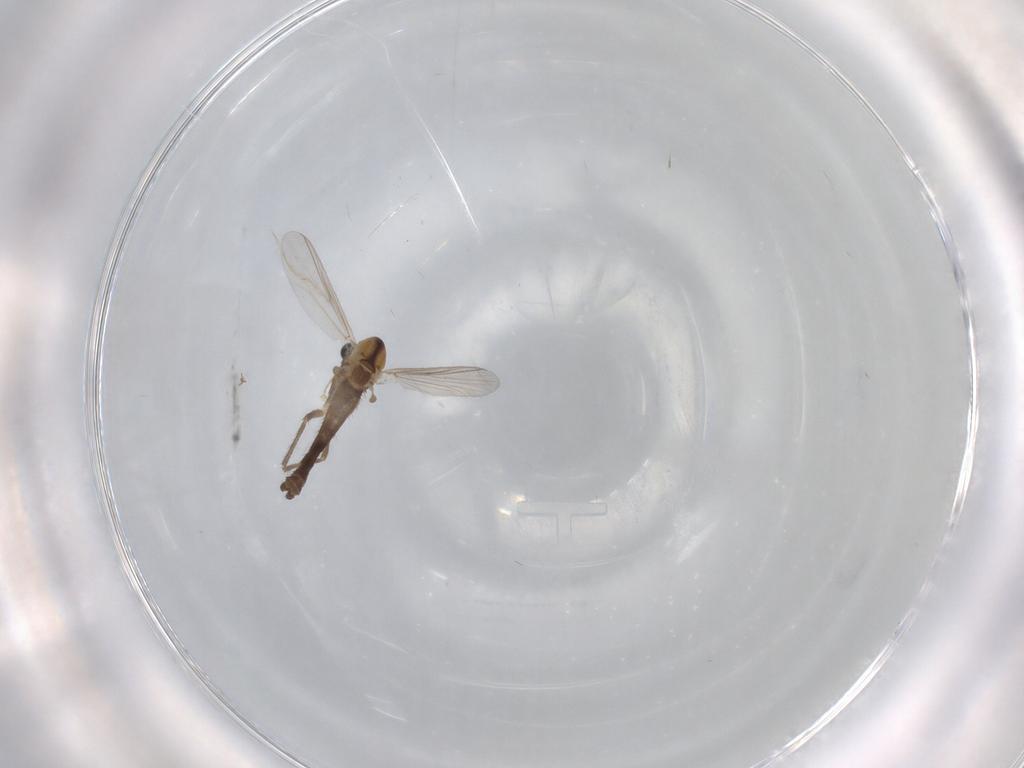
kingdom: Animalia
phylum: Arthropoda
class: Insecta
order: Diptera
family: Chironomidae
